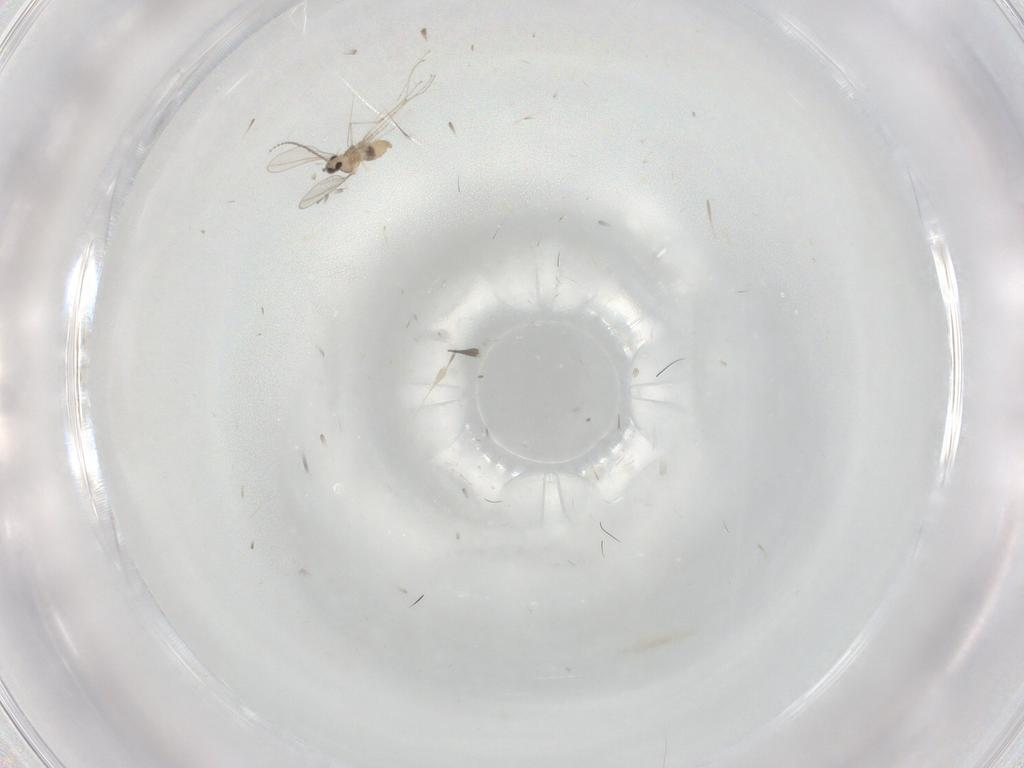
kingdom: Animalia
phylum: Arthropoda
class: Insecta
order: Diptera
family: Cecidomyiidae
